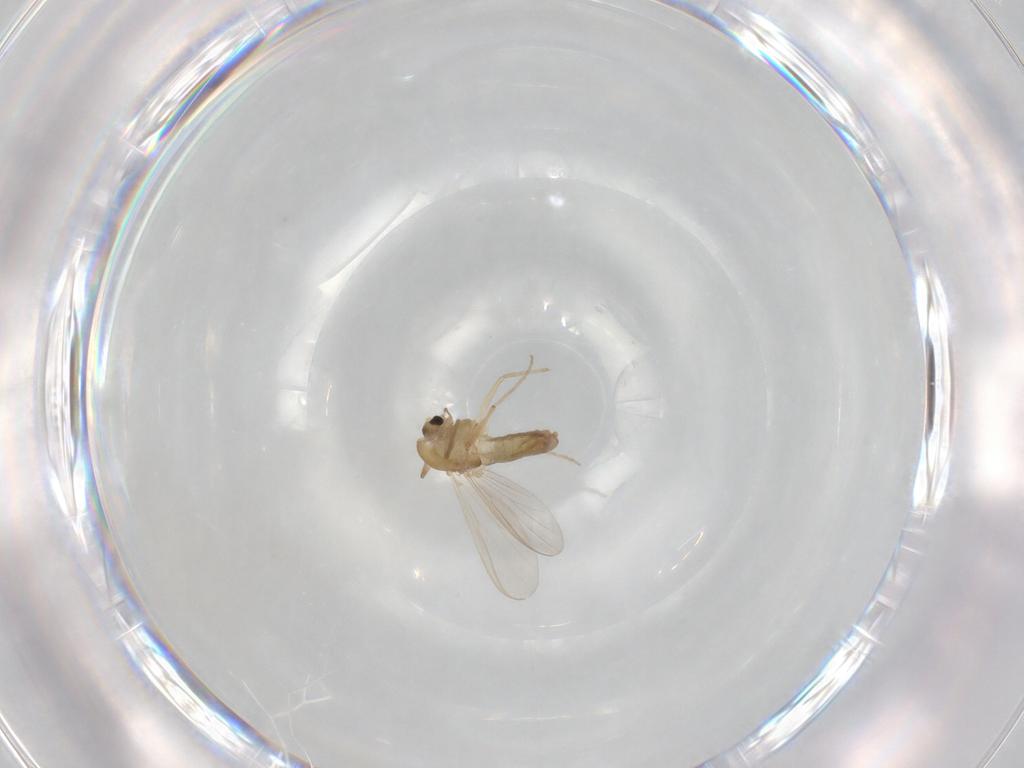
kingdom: Animalia
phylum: Arthropoda
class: Insecta
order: Diptera
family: Chironomidae
